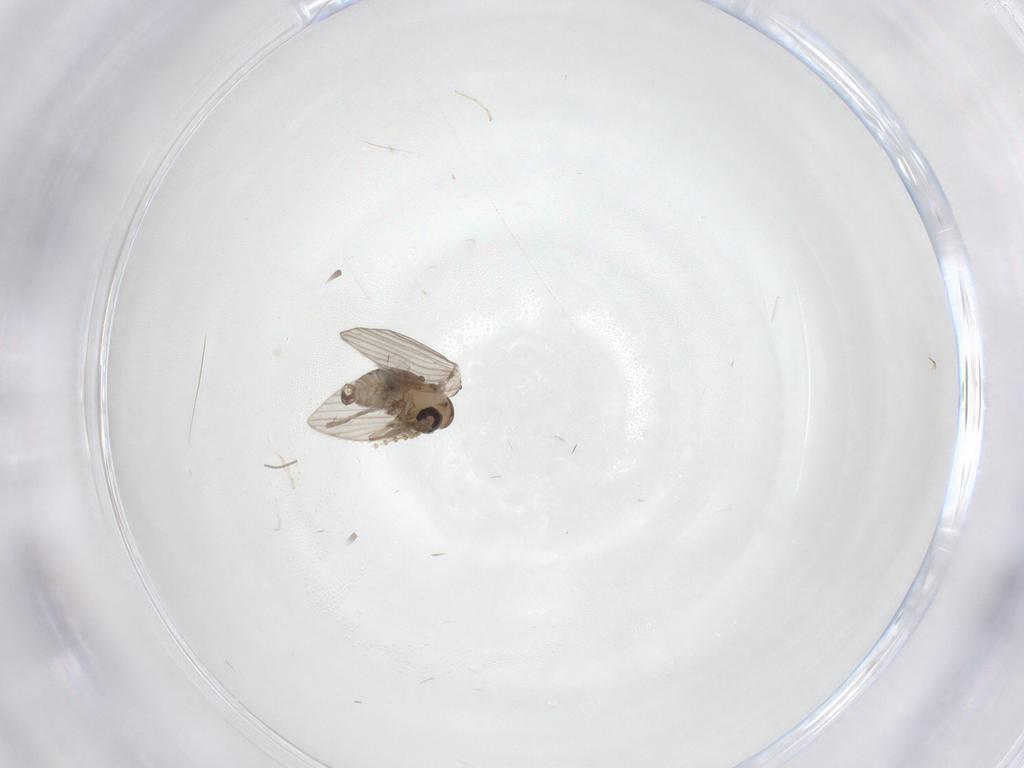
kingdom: Animalia
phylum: Arthropoda
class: Insecta
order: Diptera
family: Psychodidae
